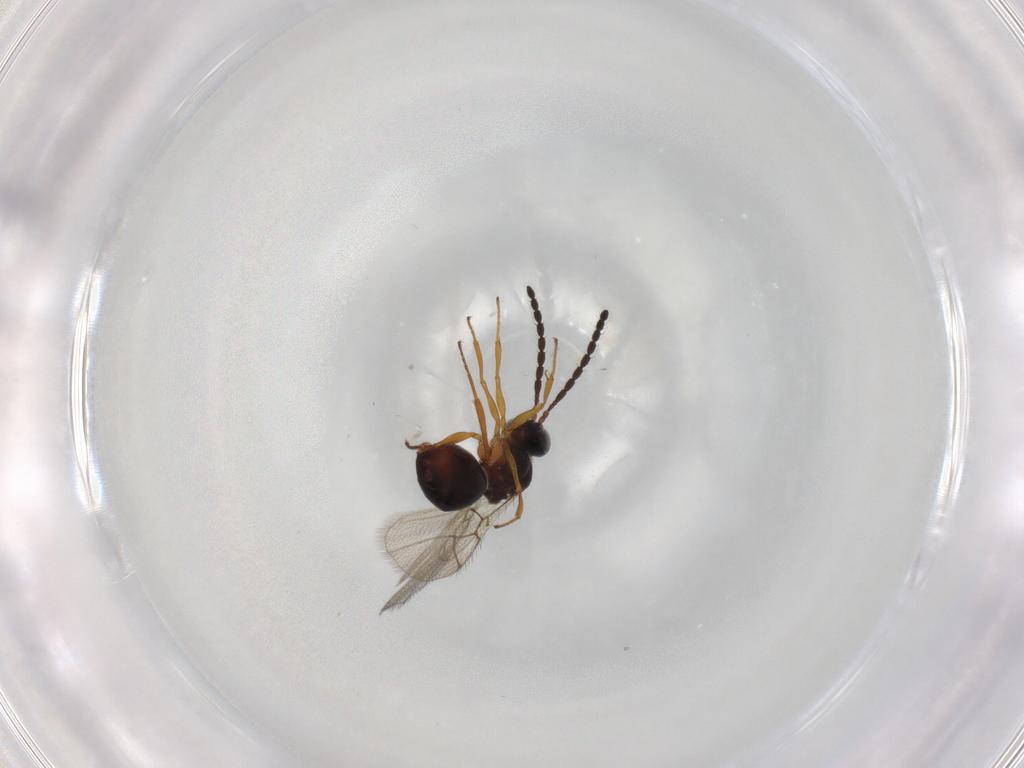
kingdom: Animalia
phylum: Arthropoda
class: Insecta
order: Hymenoptera
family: Figitidae
